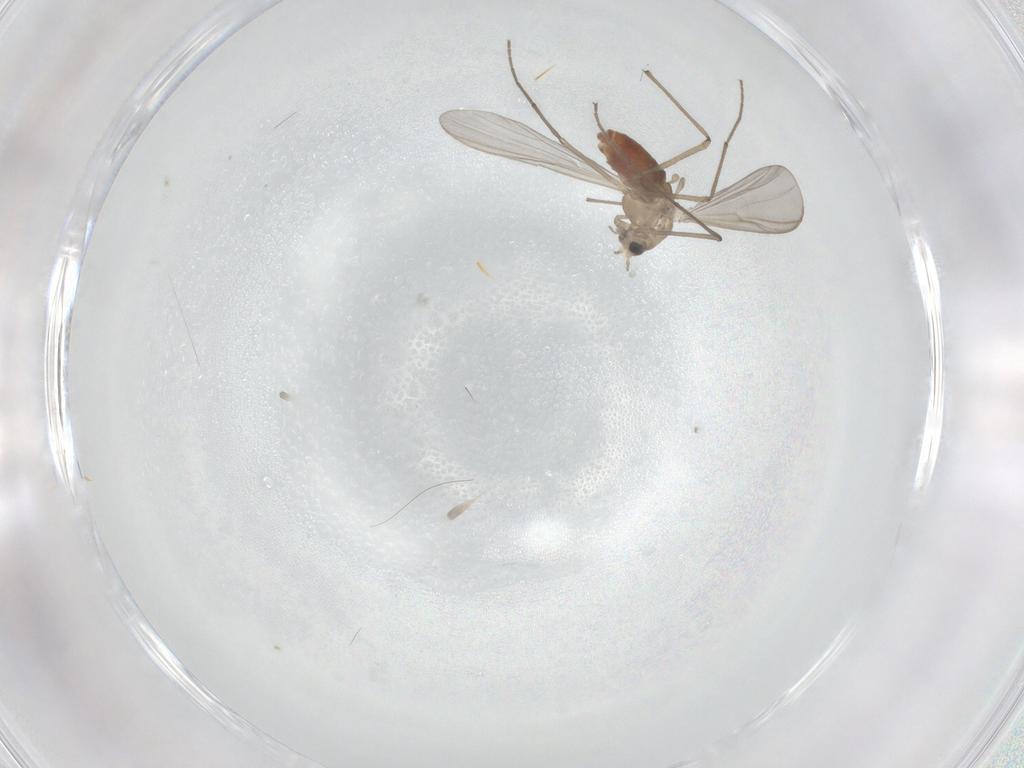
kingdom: Animalia
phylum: Arthropoda
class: Insecta
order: Diptera
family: Chironomidae
